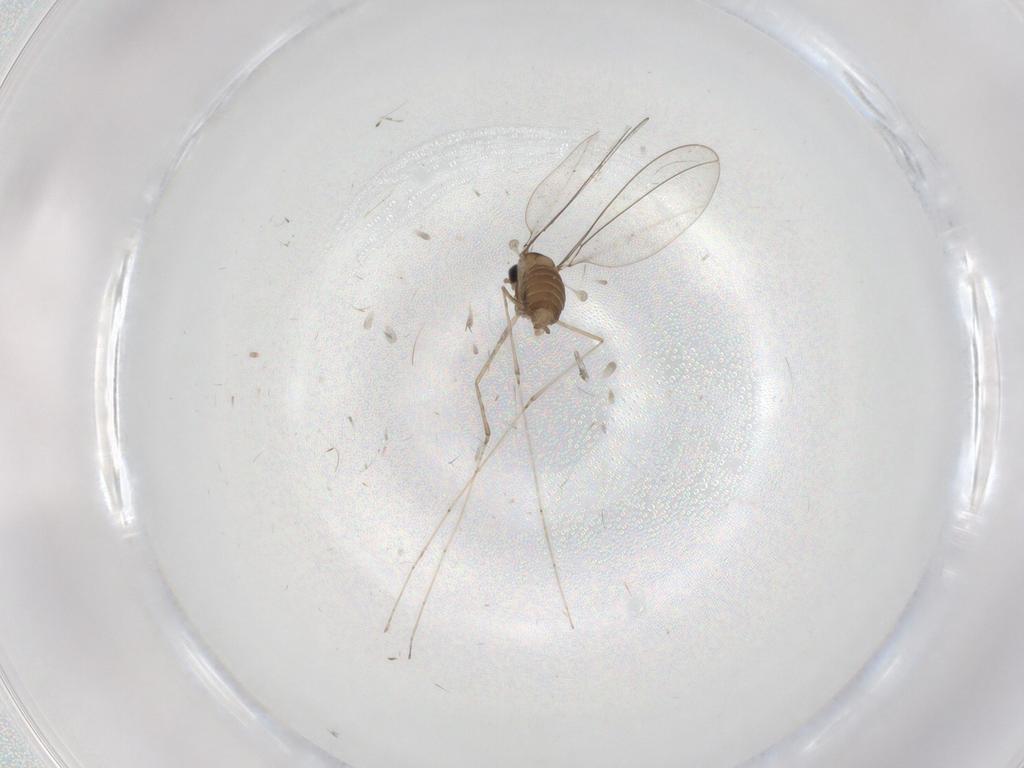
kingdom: Animalia
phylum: Arthropoda
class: Insecta
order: Diptera
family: Cecidomyiidae
